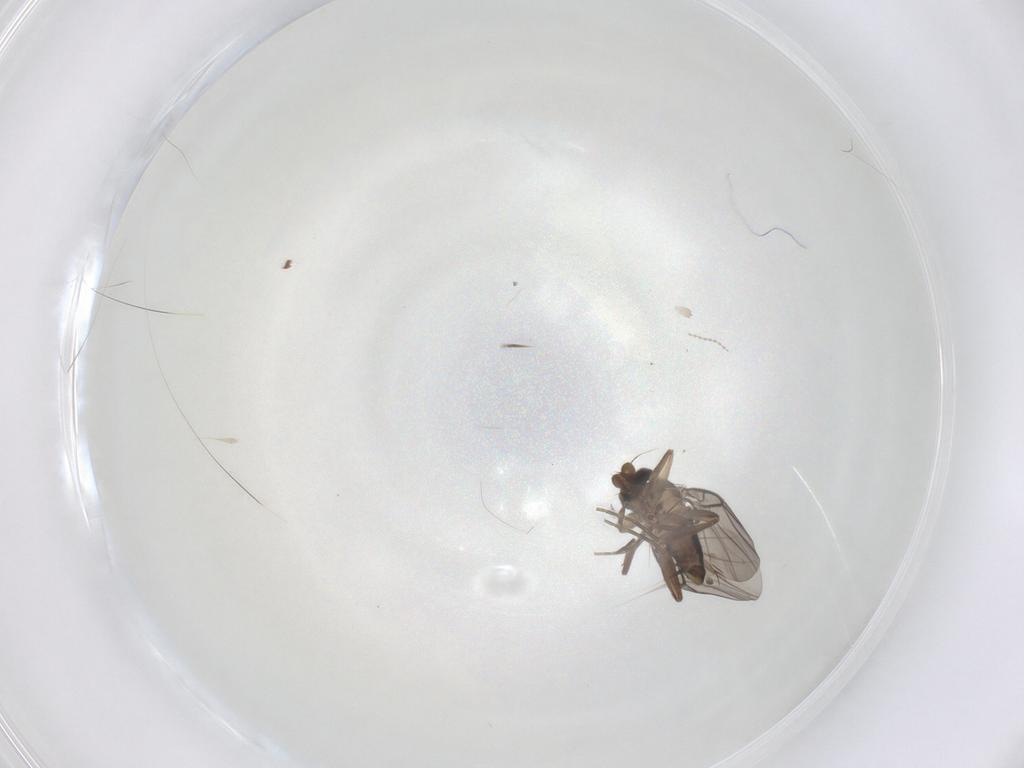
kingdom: Animalia
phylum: Arthropoda
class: Insecta
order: Diptera
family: Phoridae
